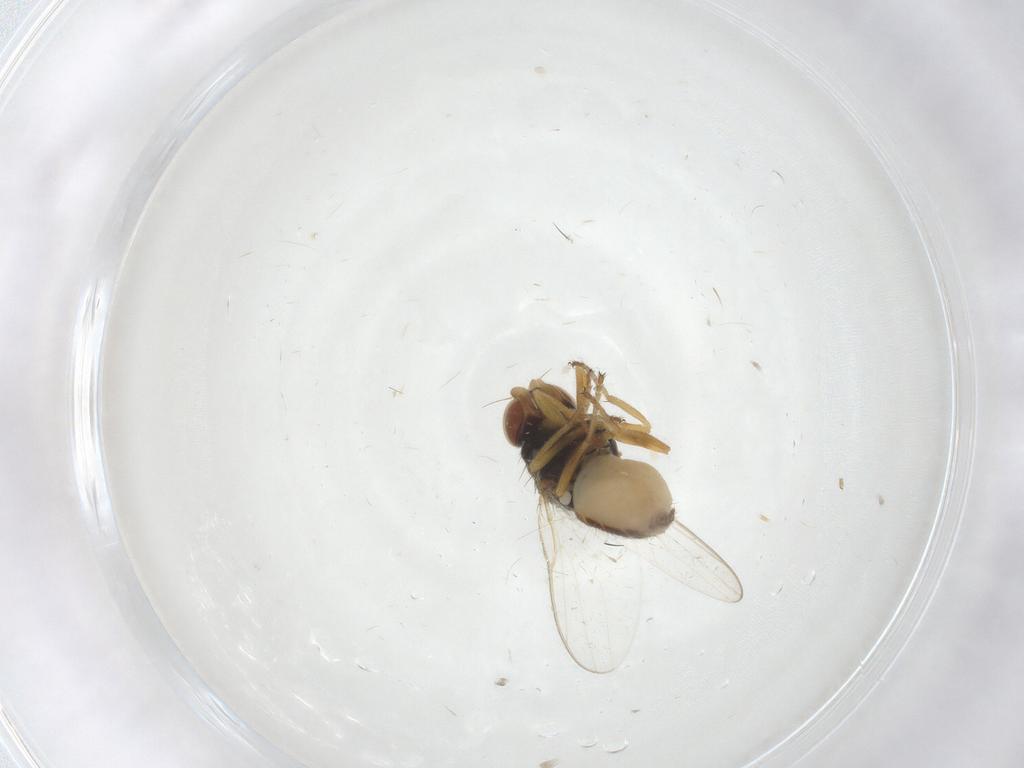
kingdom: Animalia
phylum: Arthropoda
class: Insecta
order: Diptera
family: Chloropidae
